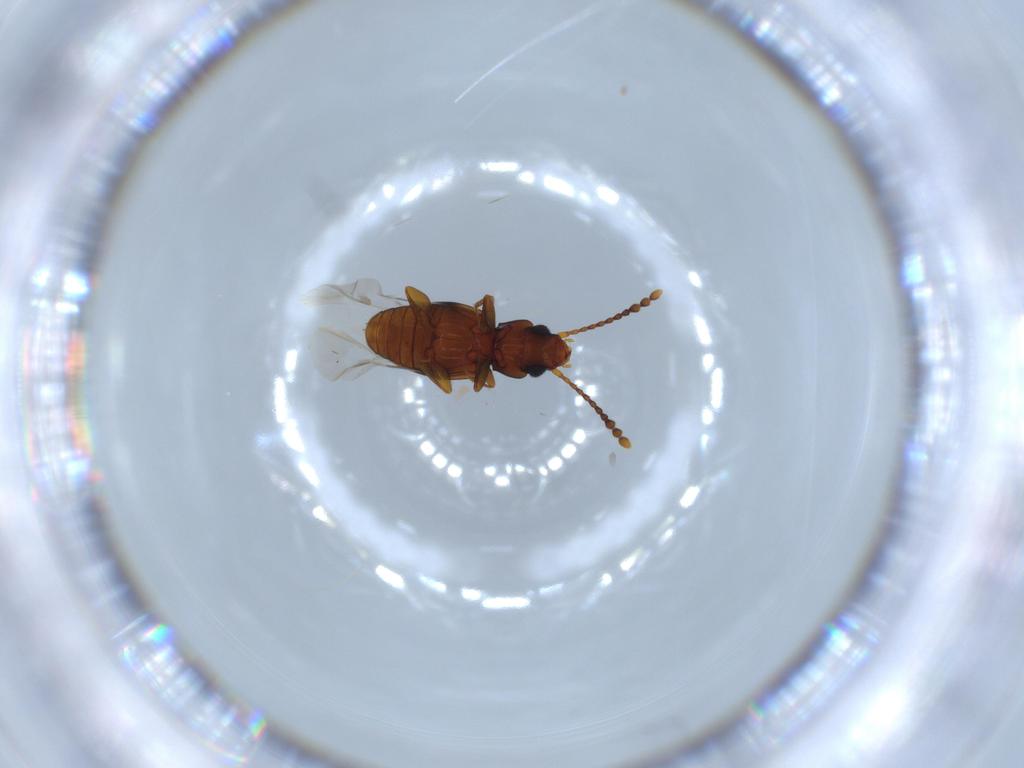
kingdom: Animalia
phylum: Arthropoda
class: Insecta
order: Coleoptera
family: Laemophloeidae
